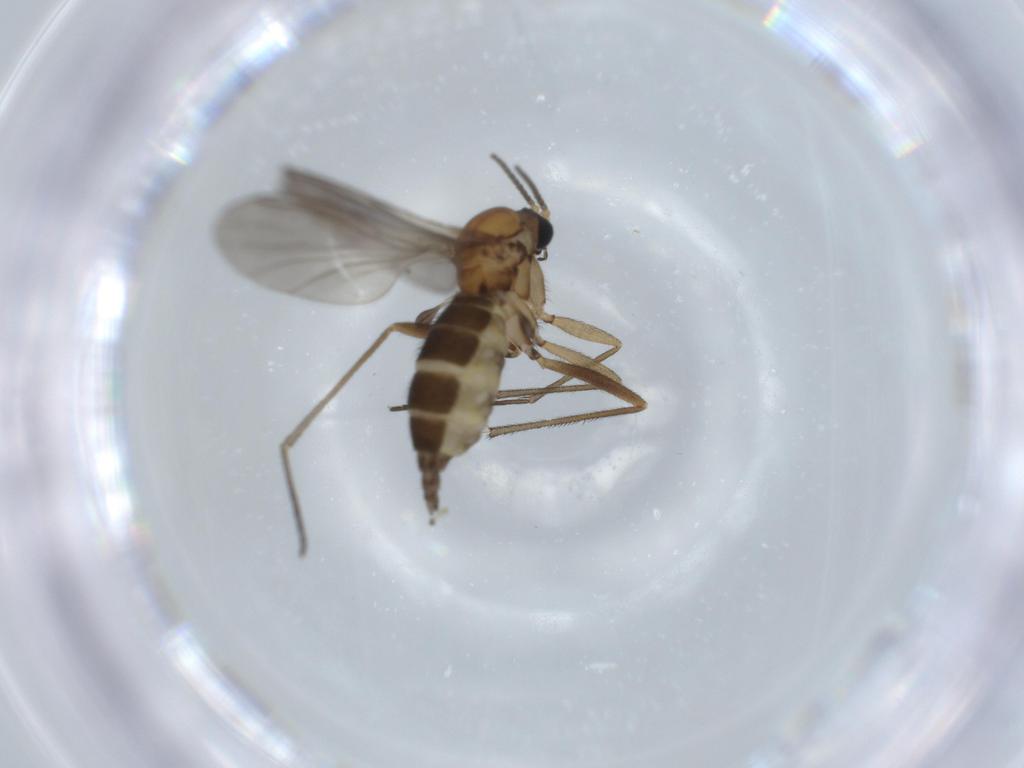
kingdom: Animalia
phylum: Arthropoda
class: Insecta
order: Diptera
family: Sciaridae
